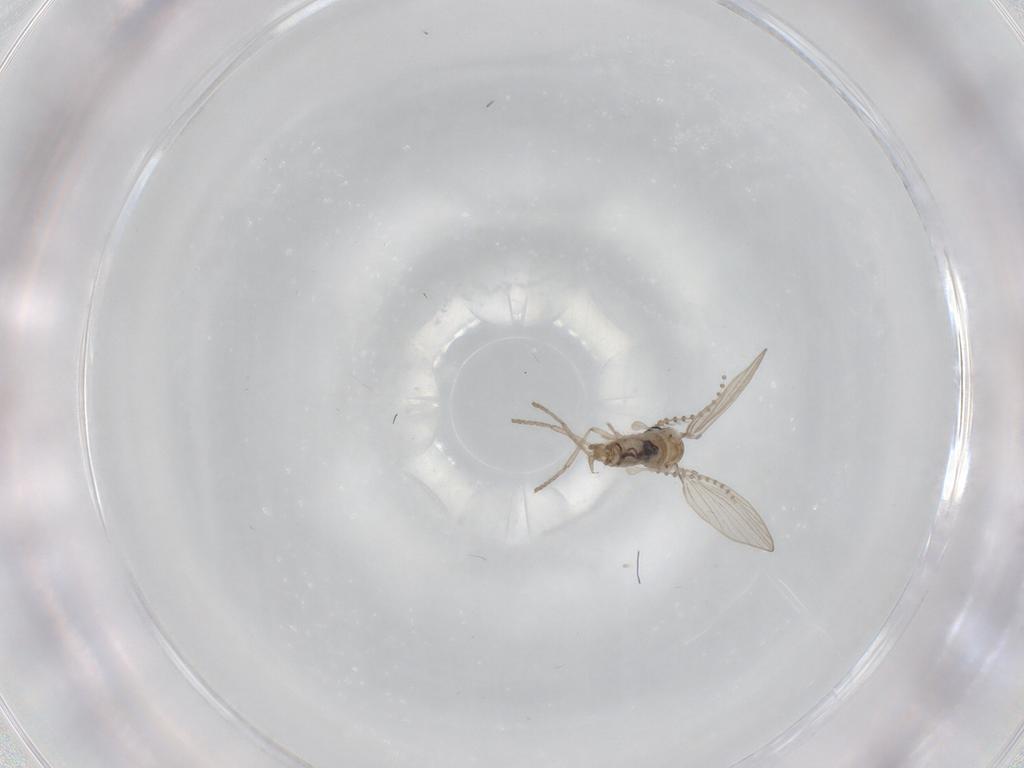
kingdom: Animalia
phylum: Arthropoda
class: Insecta
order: Diptera
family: Psychodidae
